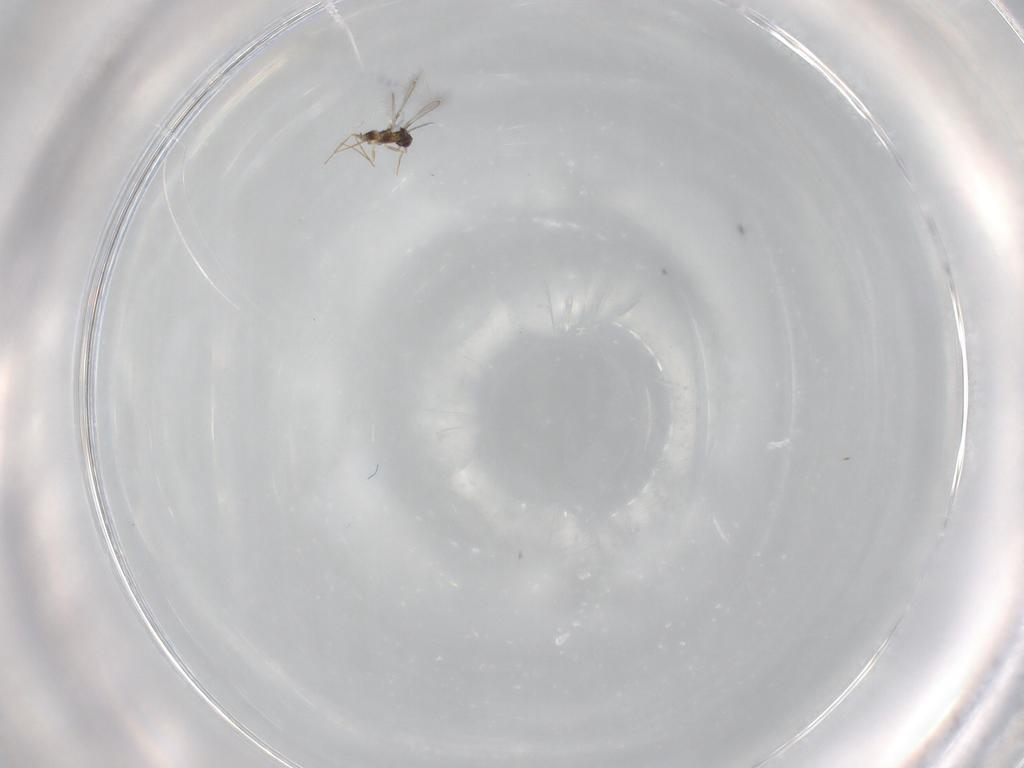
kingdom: Animalia
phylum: Arthropoda
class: Insecta
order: Hymenoptera
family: Mymaridae
